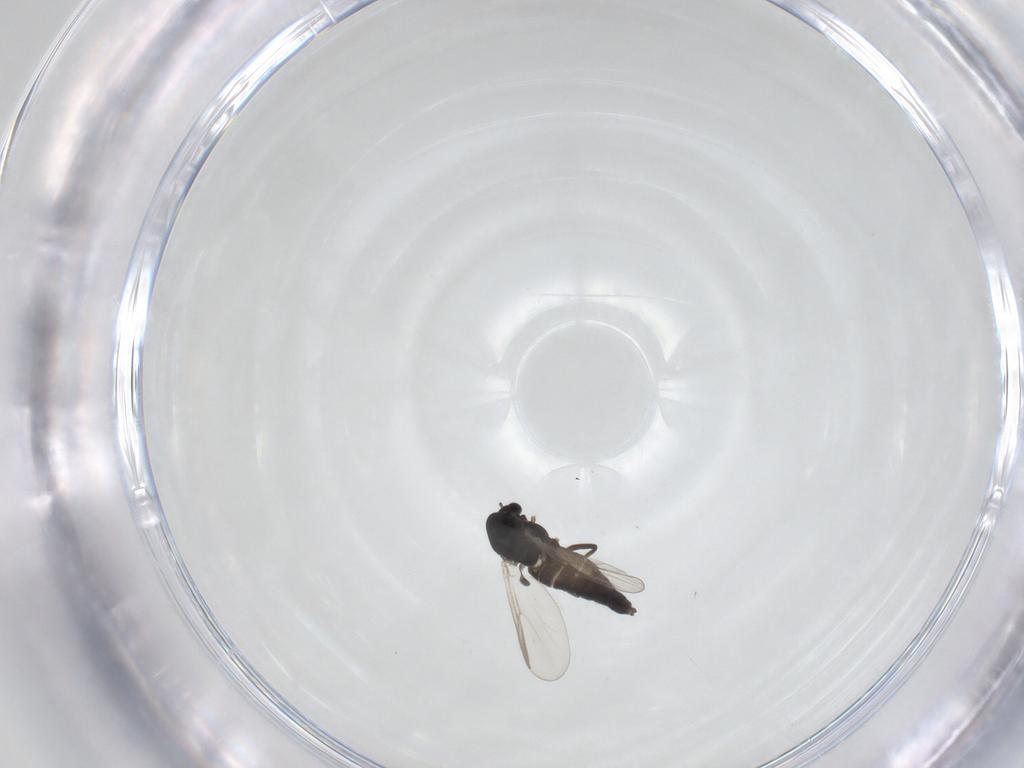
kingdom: Animalia
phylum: Arthropoda
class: Insecta
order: Diptera
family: Chironomidae
